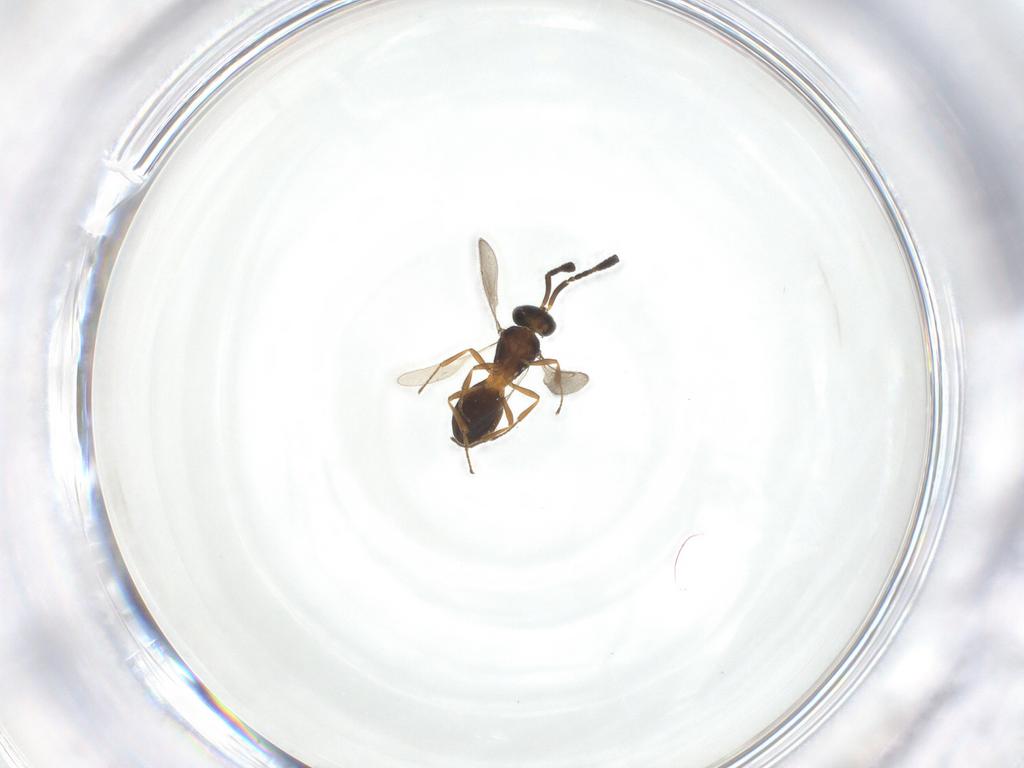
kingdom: Animalia
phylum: Arthropoda
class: Insecta
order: Hymenoptera
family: Scelionidae
